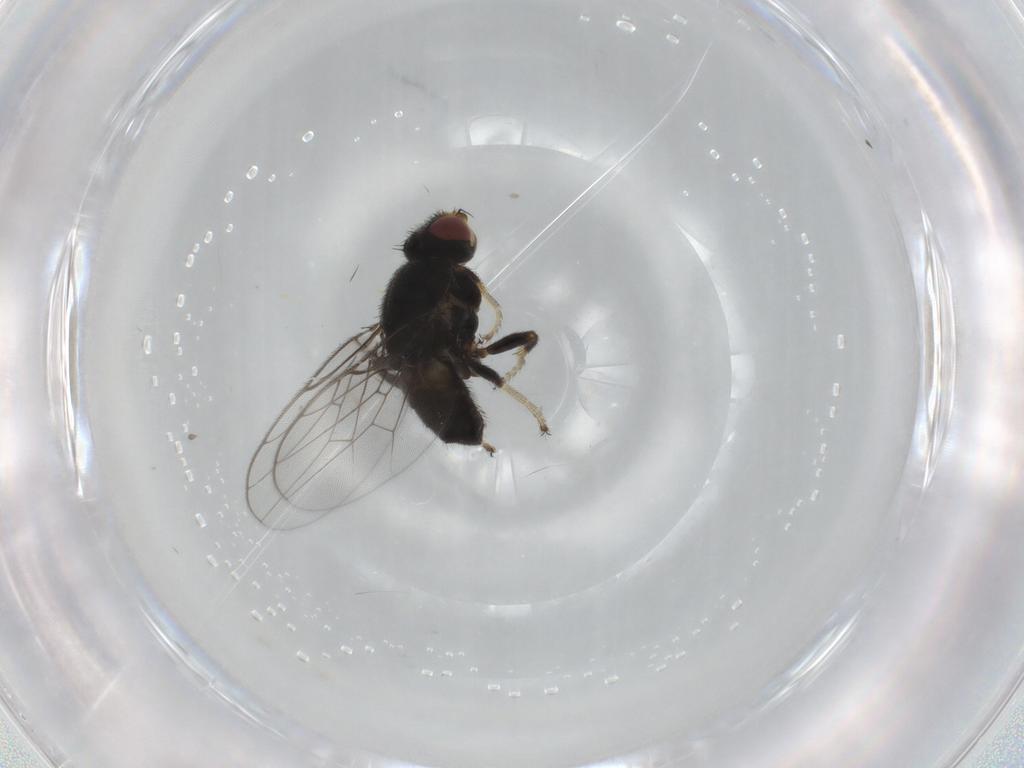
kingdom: Animalia
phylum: Arthropoda
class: Insecta
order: Diptera
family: Chloropidae
